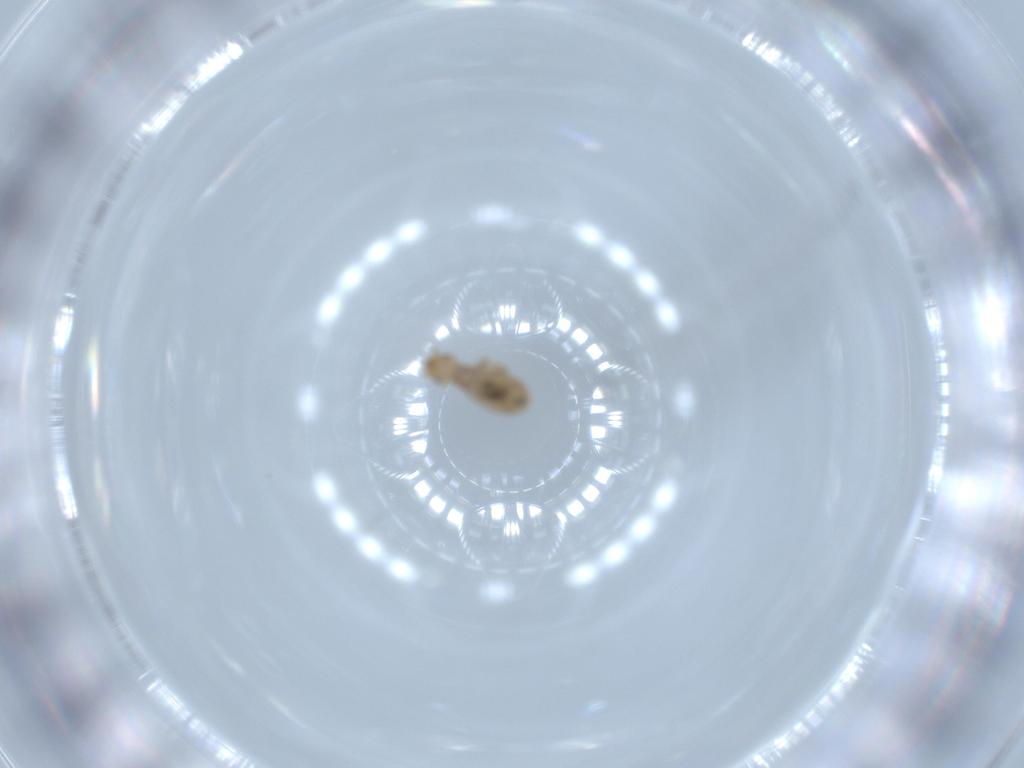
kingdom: Animalia
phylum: Arthropoda
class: Insecta
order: Psocodea
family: Liposcelididae
